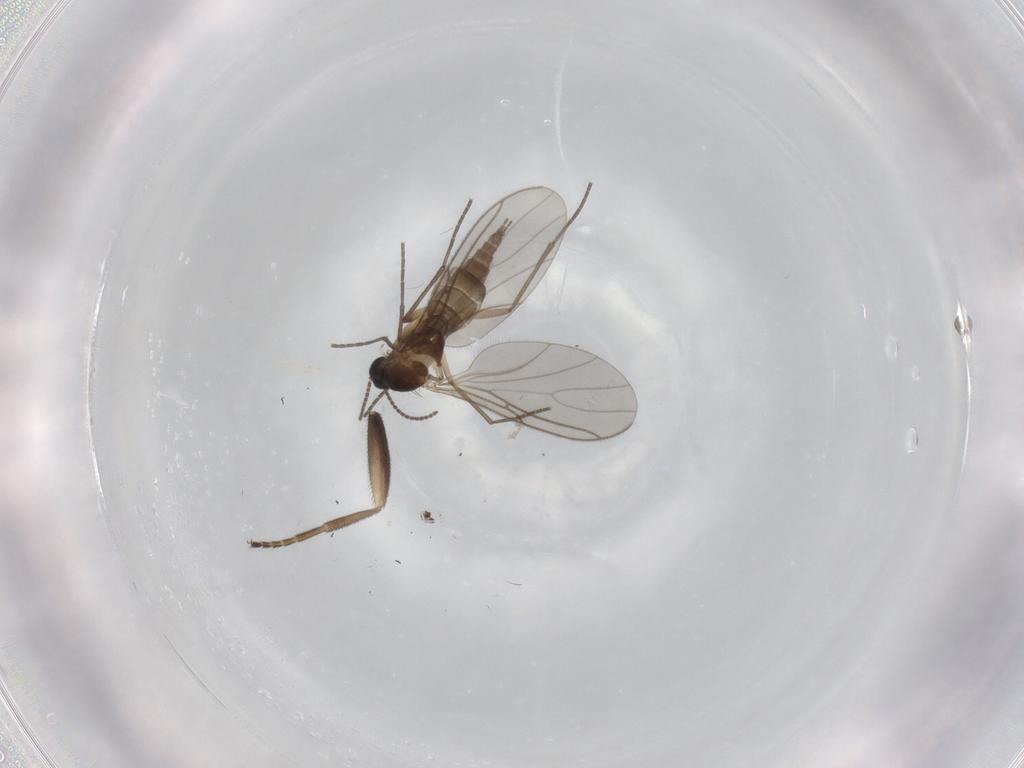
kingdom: Animalia
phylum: Arthropoda
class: Insecta
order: Diptera
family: Sciaridae
